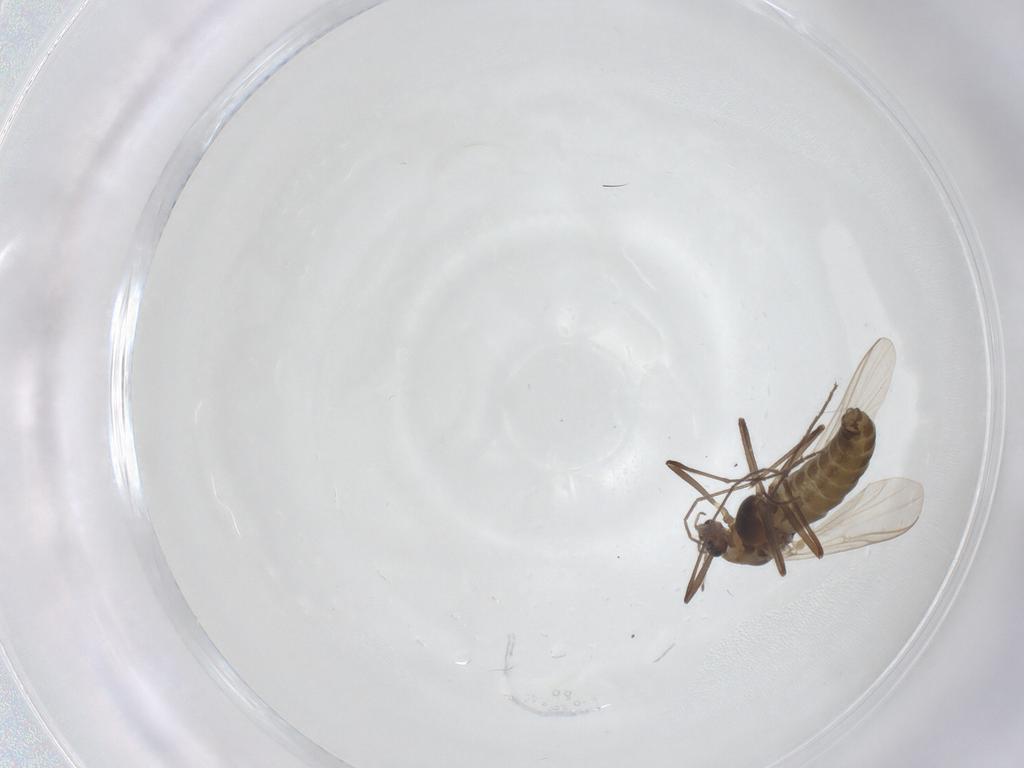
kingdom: Animalia
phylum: Arthropoda
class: Insecta
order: Diptera
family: Chironomidae
